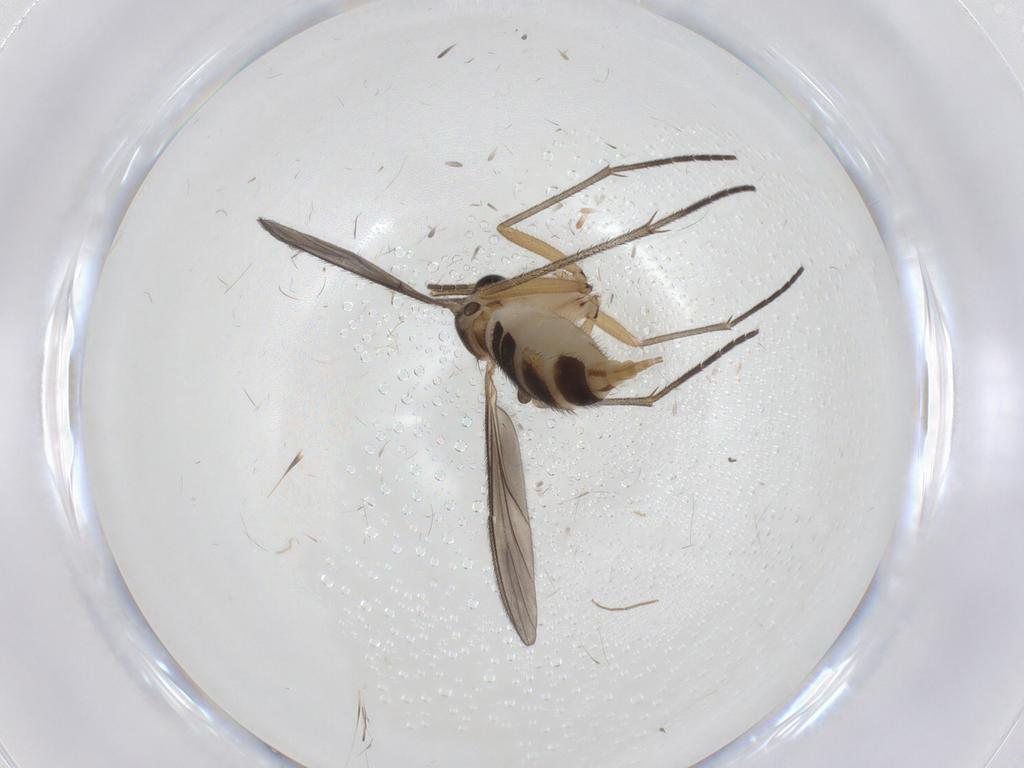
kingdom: Animalia
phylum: Arthropoda
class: Insecta
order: Diptera
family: Sciaridae
